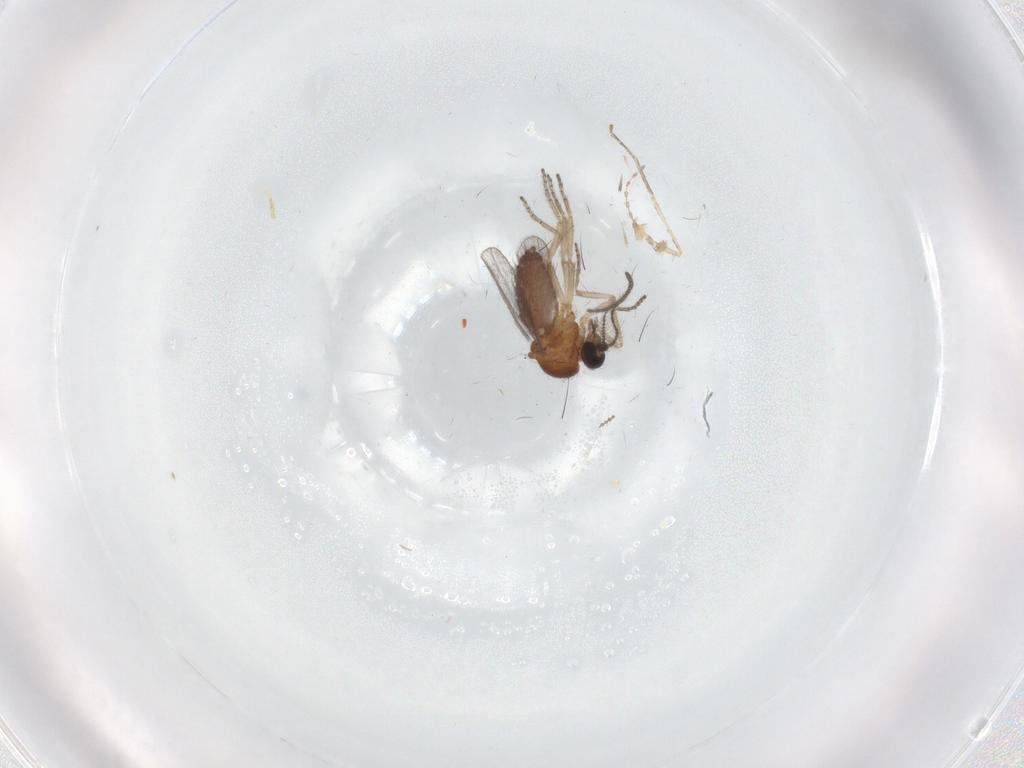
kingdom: Animalia
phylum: Arthropoda
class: Insecta
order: Diptera
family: Ceratopogonidae
